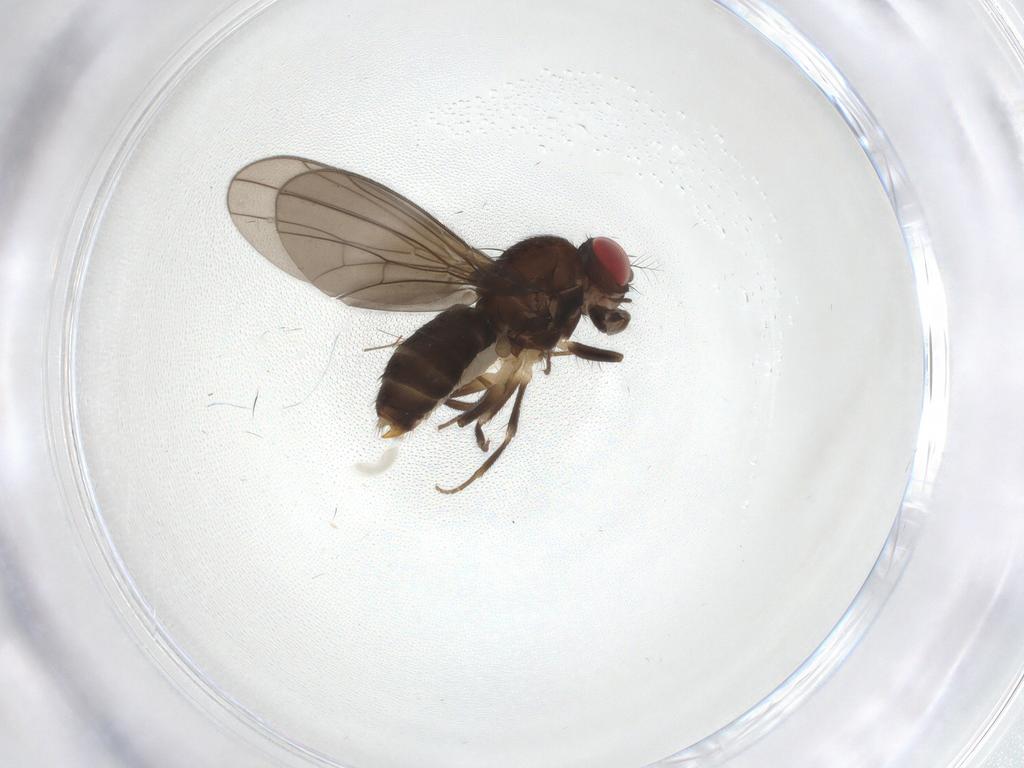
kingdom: Animalia
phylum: Arthropoda
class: Insecta
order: Diptera
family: Drosophilidae
